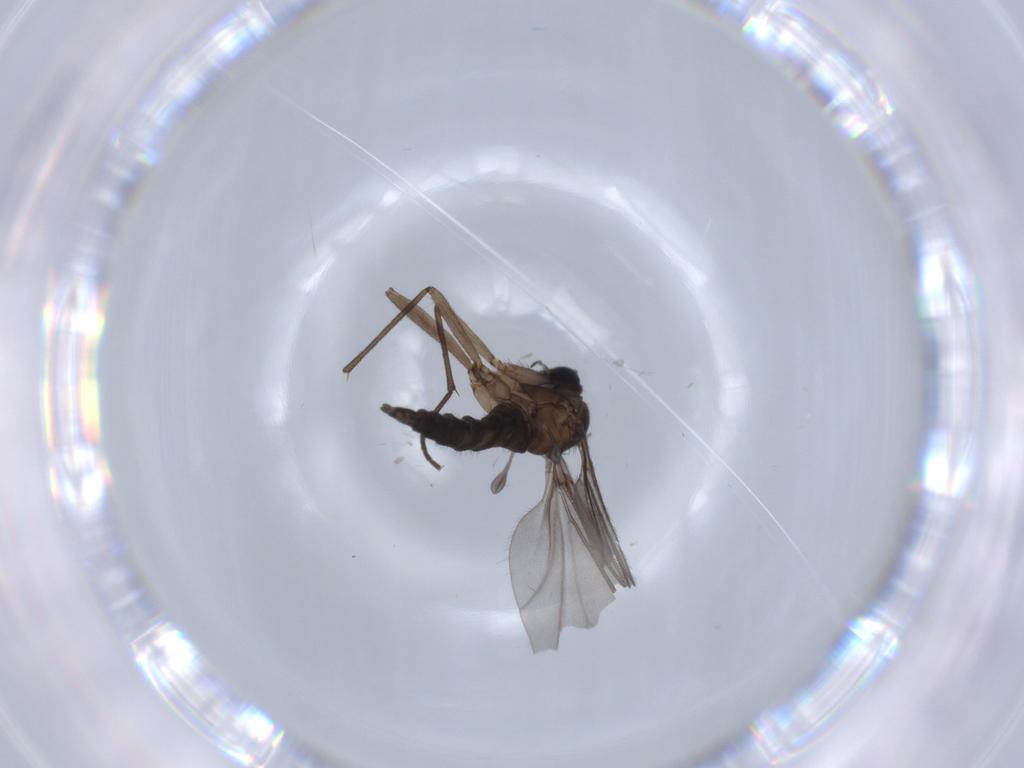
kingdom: Animalia
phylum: Arthropoda
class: Insecta
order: Diptera
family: Sciaridae
